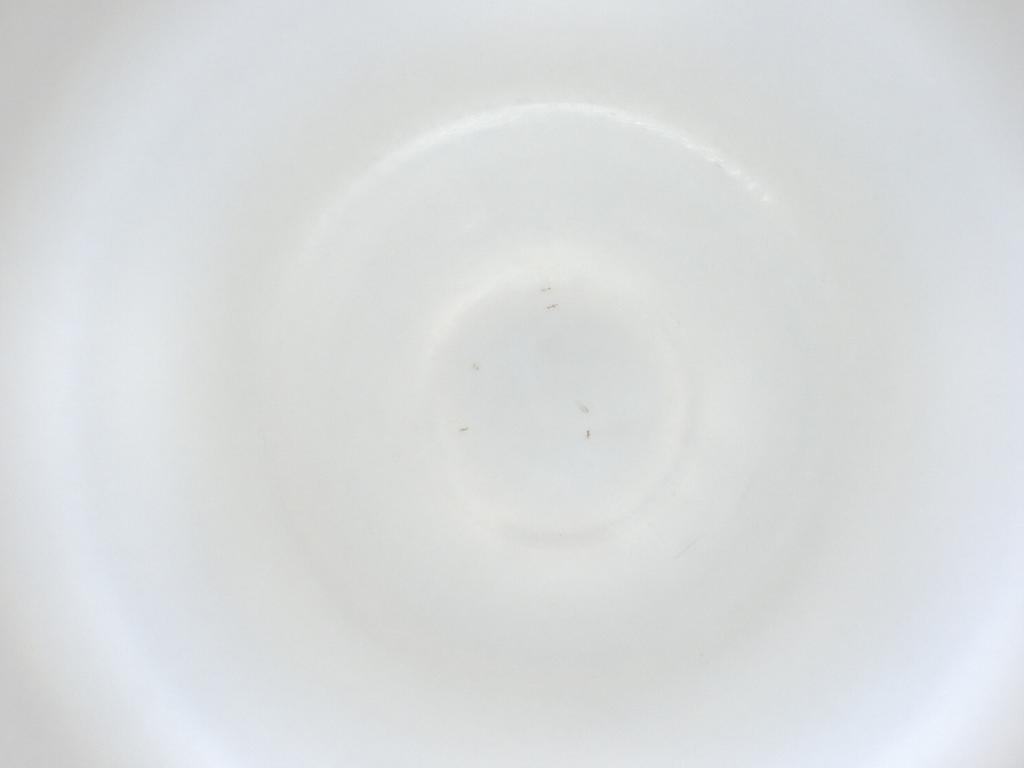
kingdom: Animalia
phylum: Arthropoda
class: Insecta
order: Diptera
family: Cecidomyiidae
